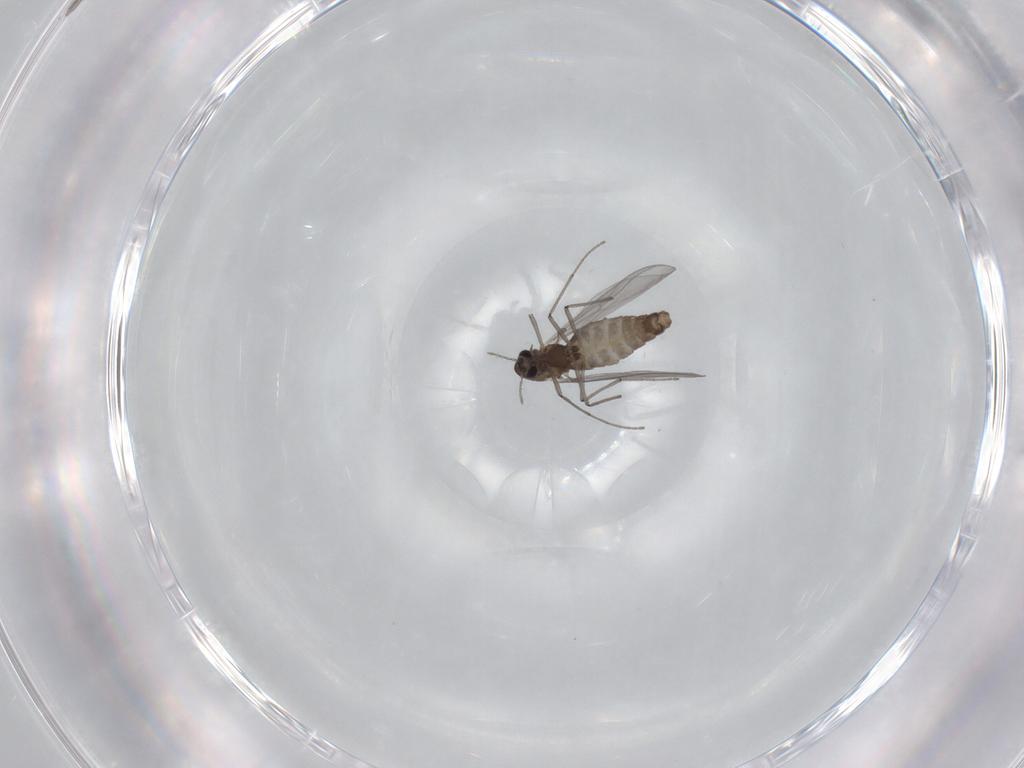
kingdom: Animalia
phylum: Arthropoda
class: Insecta
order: Diptera
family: Chironomidae
